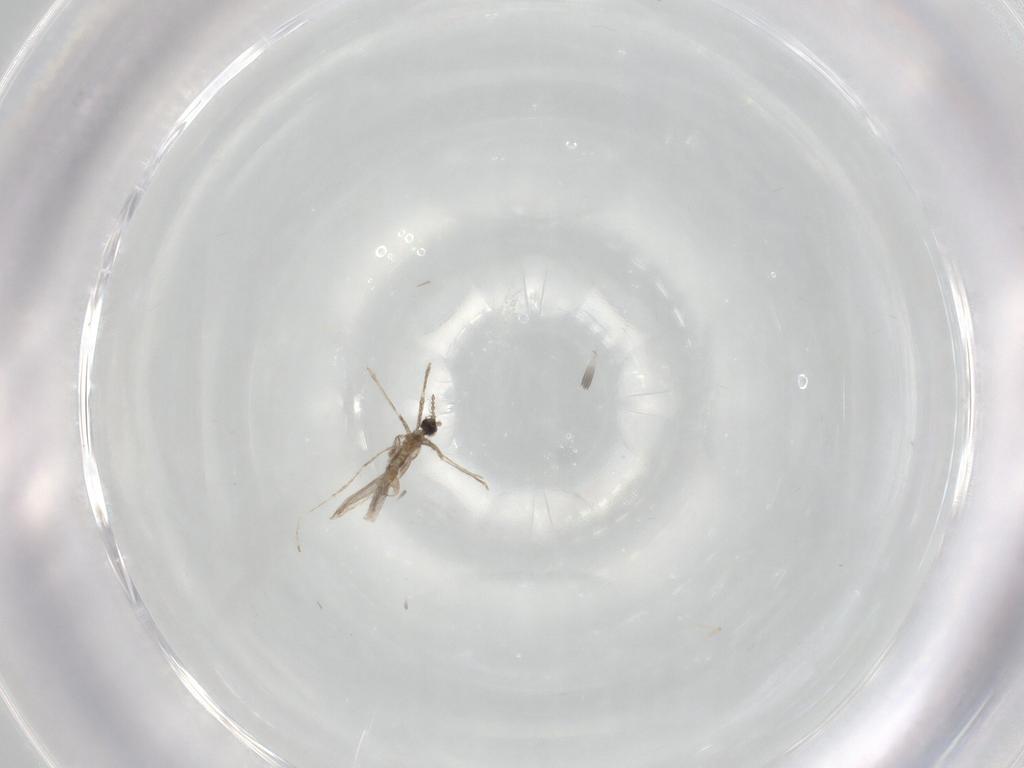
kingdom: Animalia
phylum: Arthropoda
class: Insecta
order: Diptera
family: Cecidomyiidae
